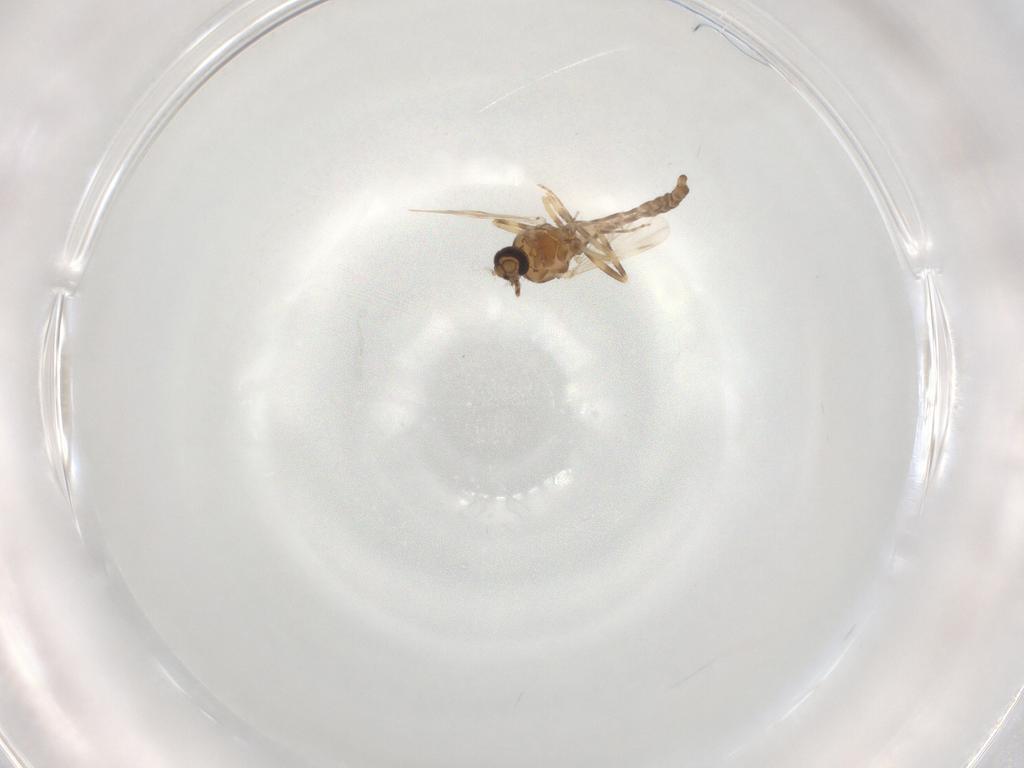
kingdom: Animalia
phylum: Arthropoda
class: Insecta
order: Diptera
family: Ceratopogonidae
